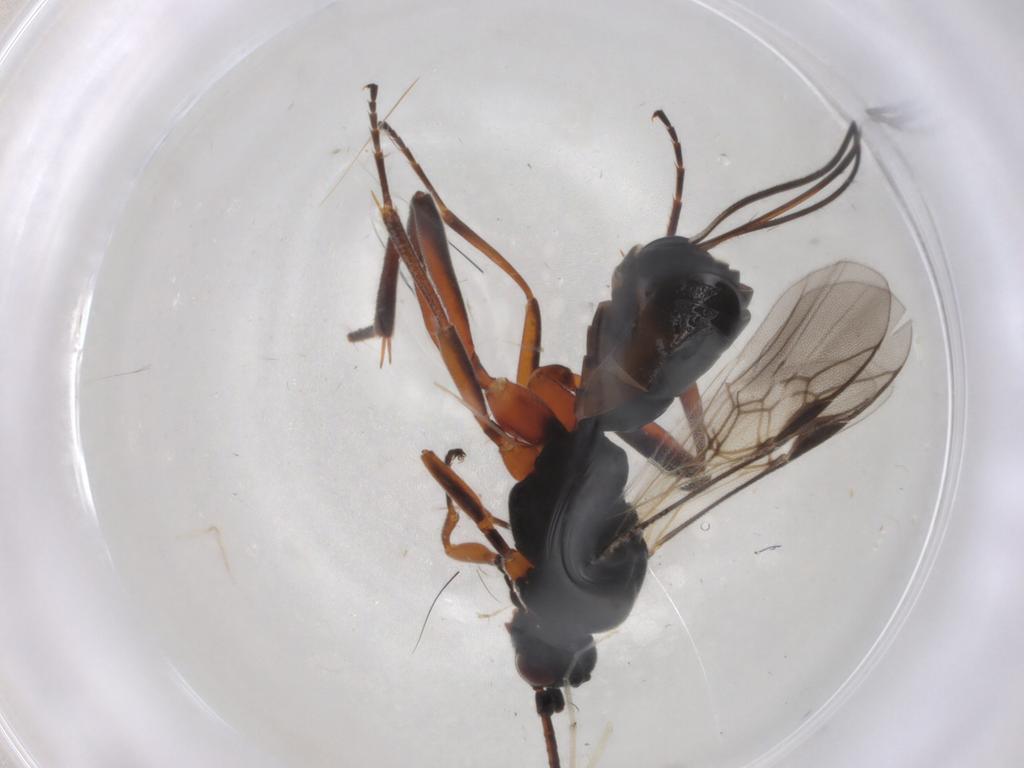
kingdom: Animalia
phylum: Arthropoda
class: Insecta
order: Hymenoptera
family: Braconidae
